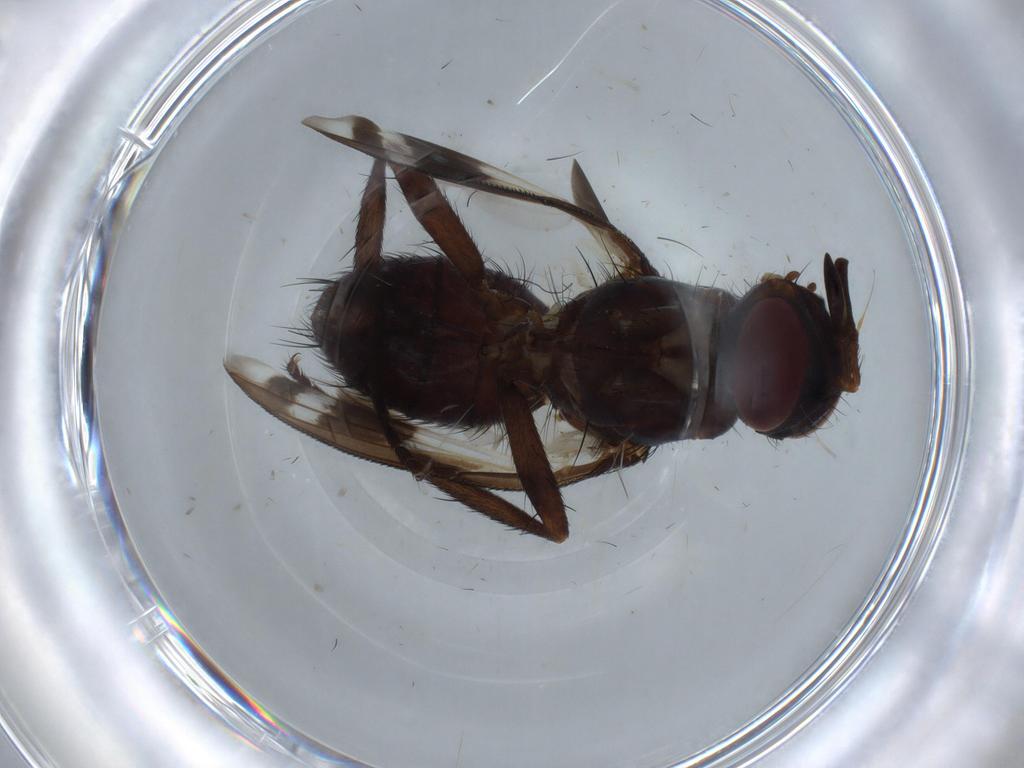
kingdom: Animalia
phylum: Arthropoda
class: Insecta
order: Diptera
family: Tachinidae
